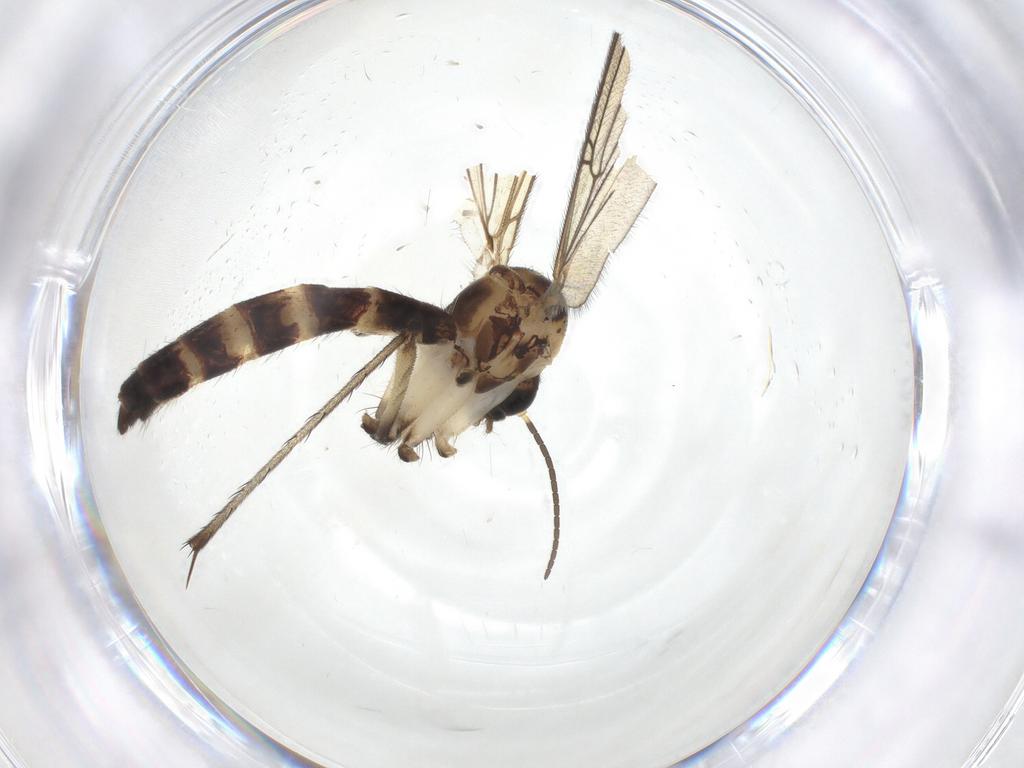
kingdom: Animalia
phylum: Arthropoda
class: Insecta
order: Diptera
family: Mycetophilidae
